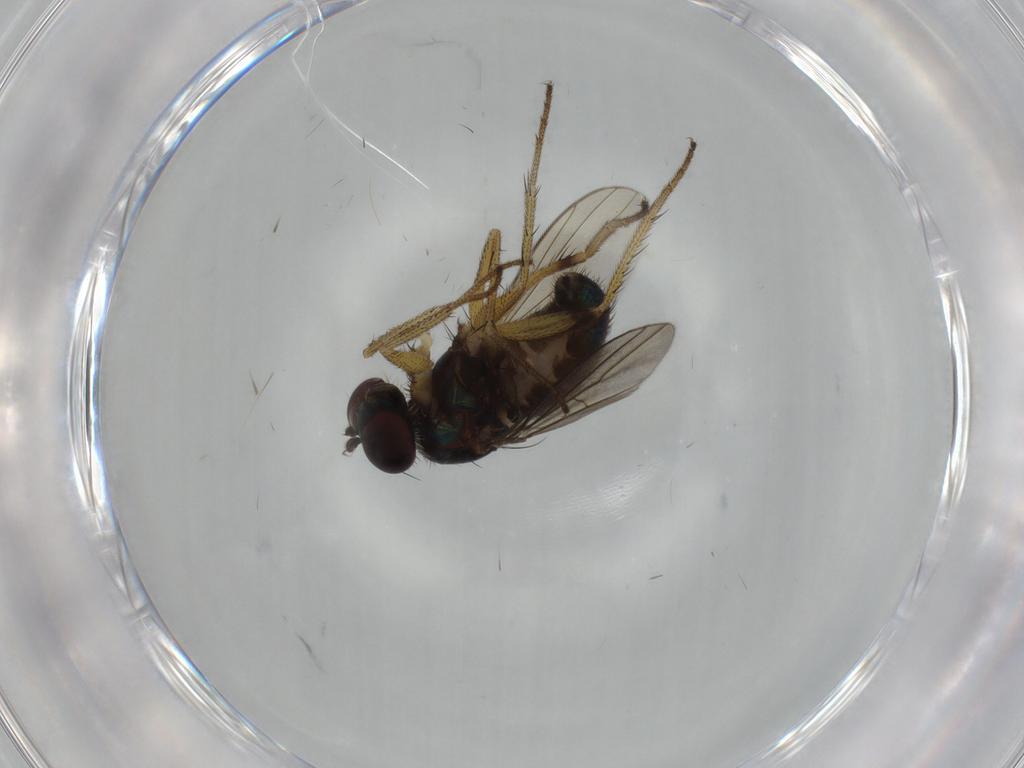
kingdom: Animalia
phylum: Arthropoda
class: Insecta
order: Diptera
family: Dolichopodidae
